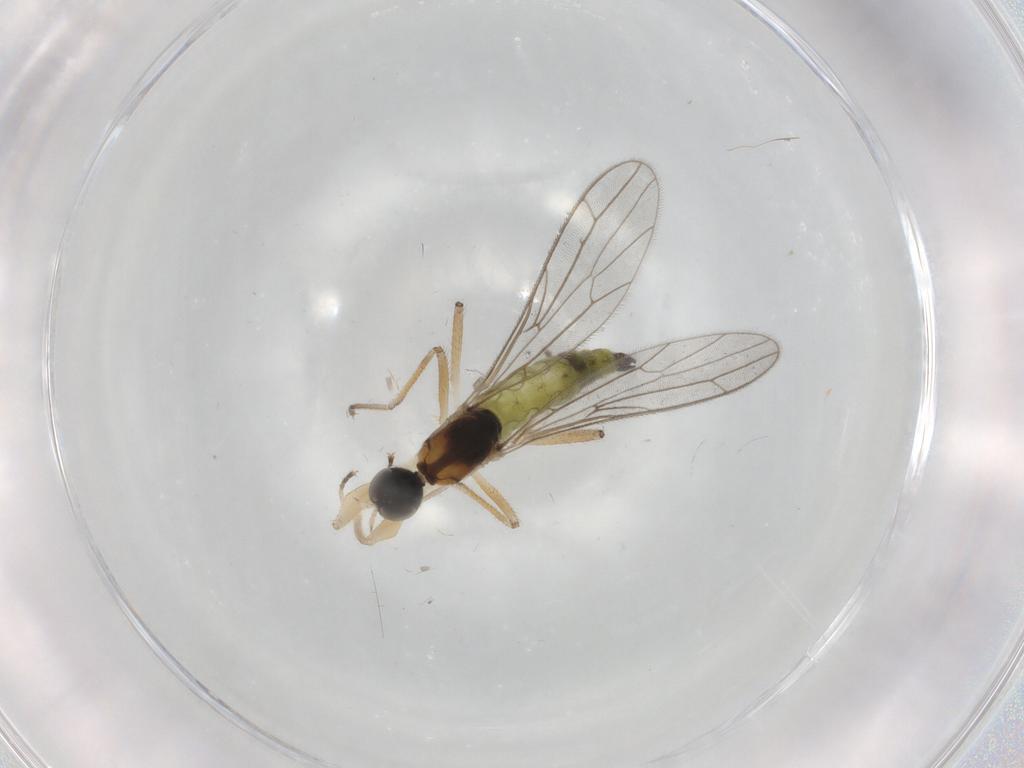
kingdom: Animalia
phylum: Arthropoda
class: Insecta
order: Diptera
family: Empididae
